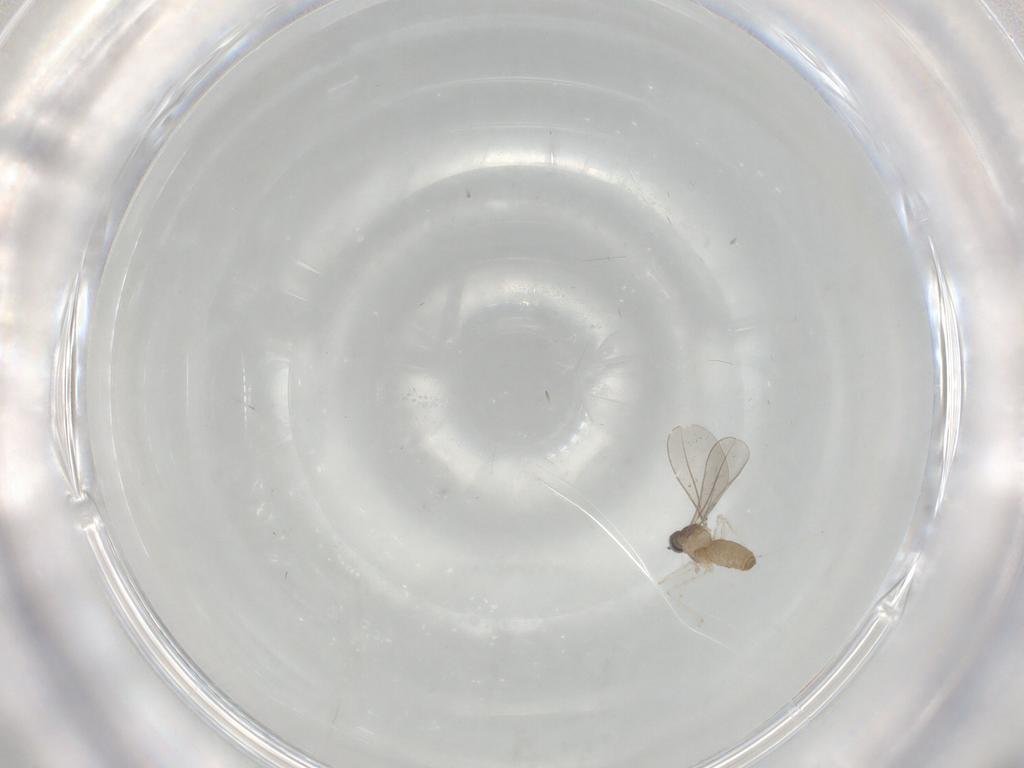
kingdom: Animalia
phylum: Arthropoda
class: Insecta
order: Diptera
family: Cecidomyiidae
